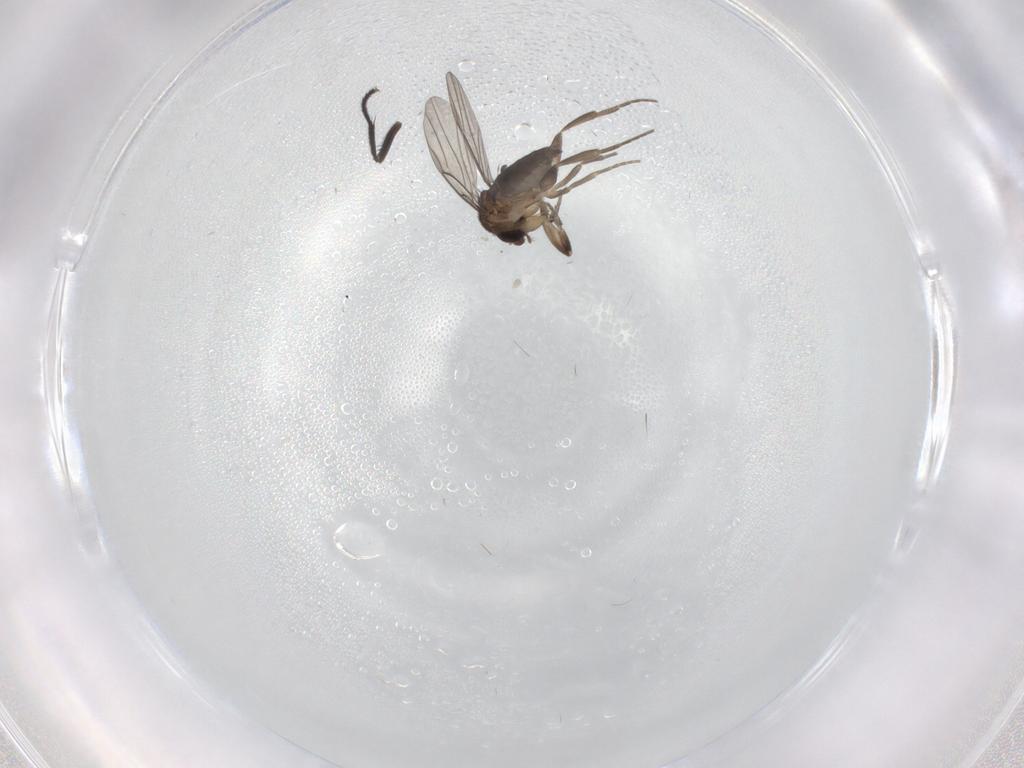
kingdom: Animalia
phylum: Arthropoda
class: Insecta
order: Diptera
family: Phoridae
